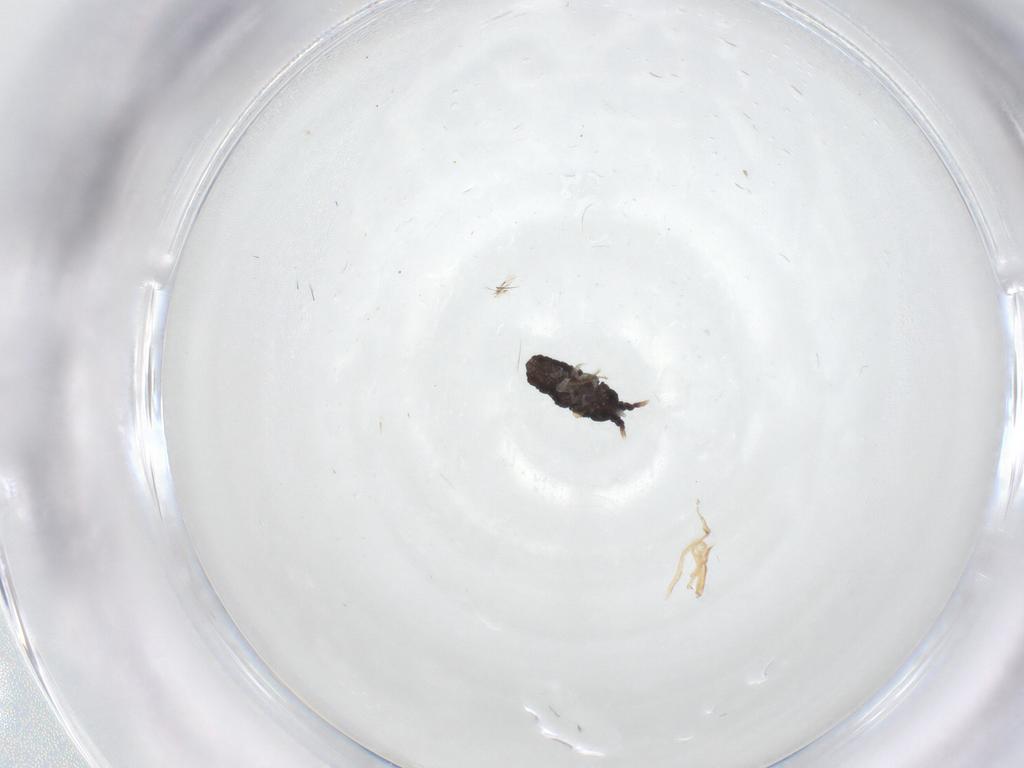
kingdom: Animalia
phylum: Arthropoda
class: Collembola
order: Poduromorpha
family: Neanuridae
